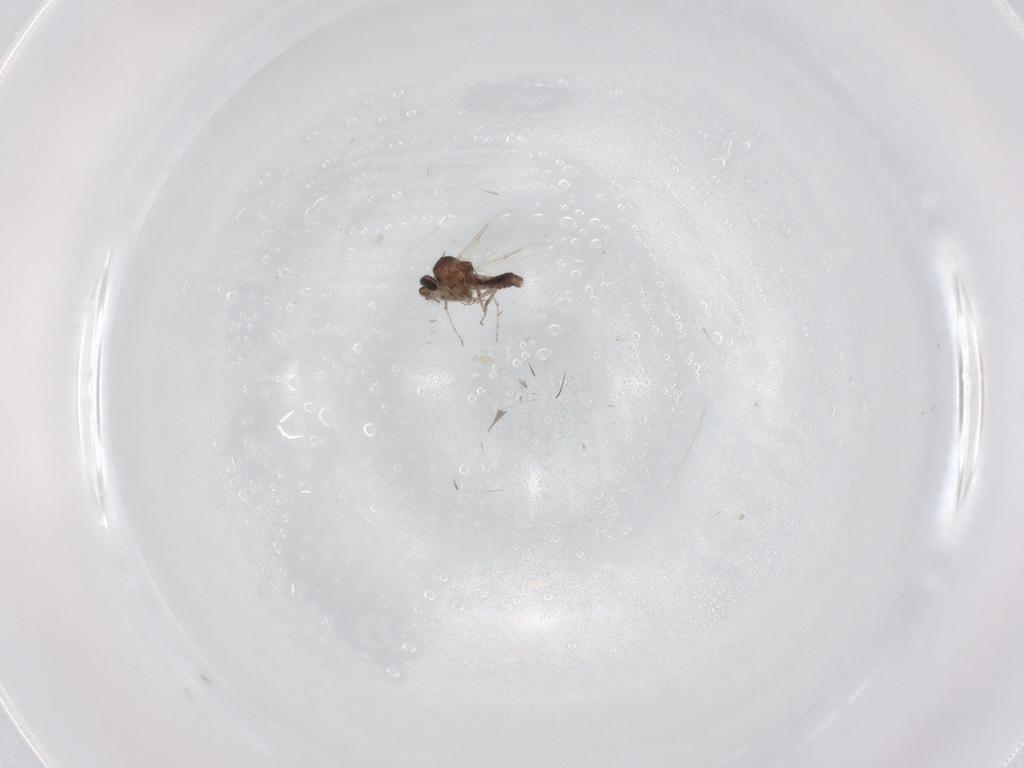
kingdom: Animalia
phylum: Arthropoda
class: Insecta
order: Diptera
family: Ceratopogonidae
